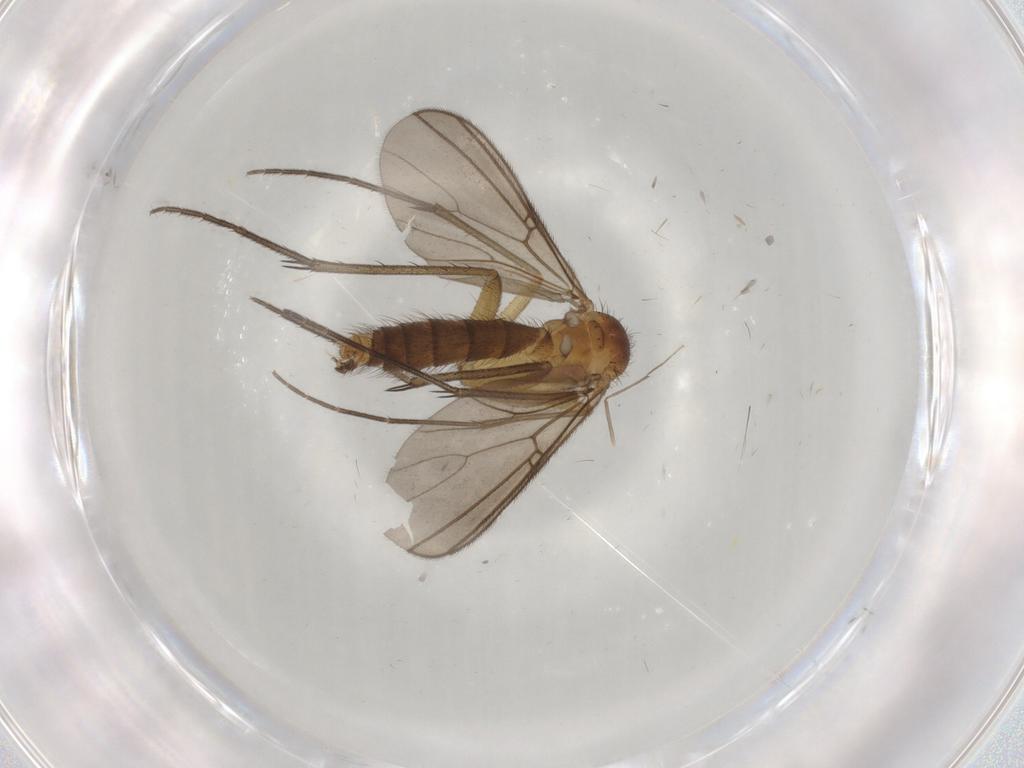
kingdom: Animalia
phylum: Arthropoda
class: Insecta
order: Diptera
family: Mycetophilidae
